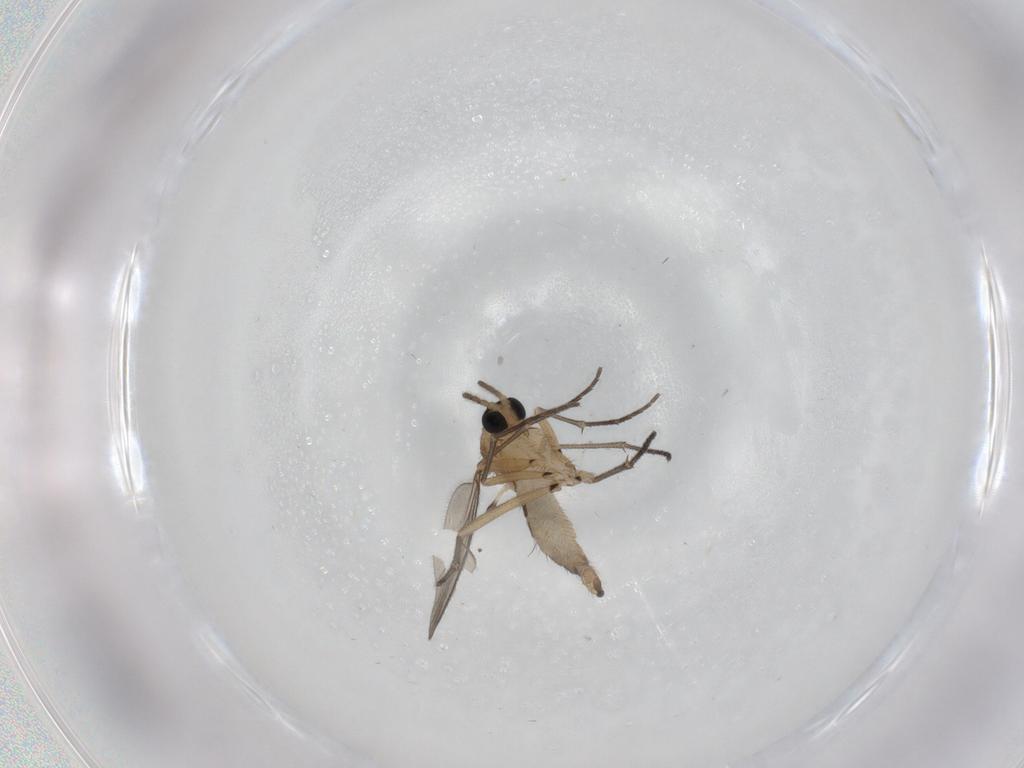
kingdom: Animalia
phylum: Arthropoda
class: Insecta
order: Diptera
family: Sciaridae
